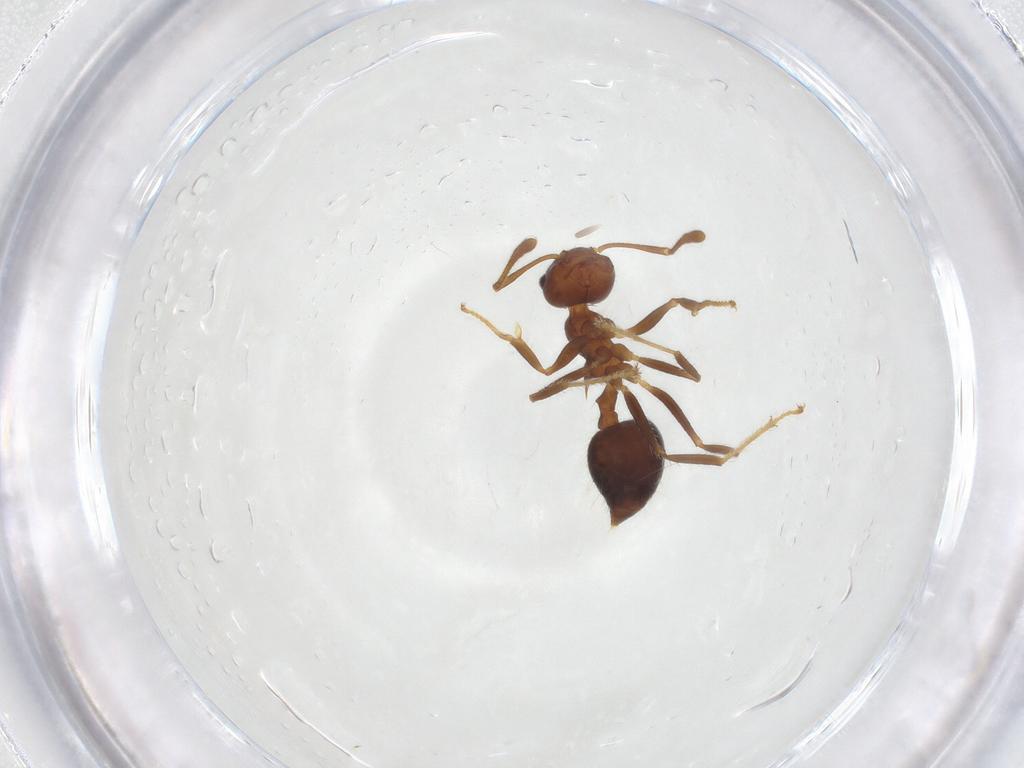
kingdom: Animalia
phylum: Arthropoda
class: Insecta
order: Hymenoptera
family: Formicidae
